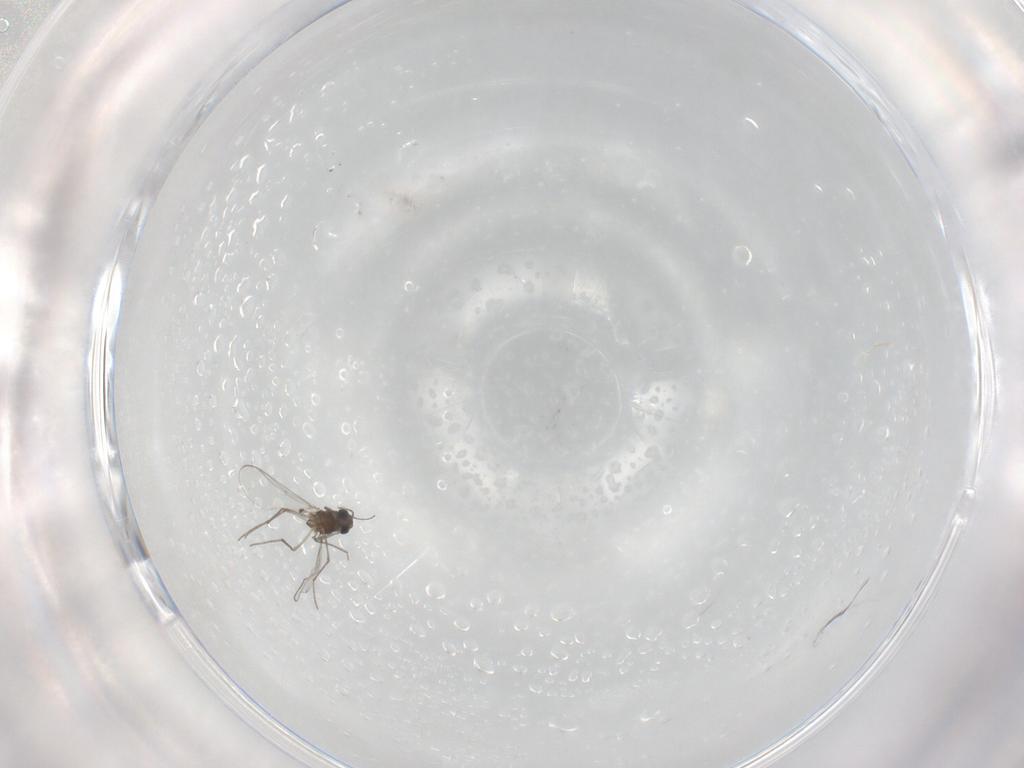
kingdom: Animalia
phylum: Arthropoda
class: Insecta
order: Diptera
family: Chironomidae
